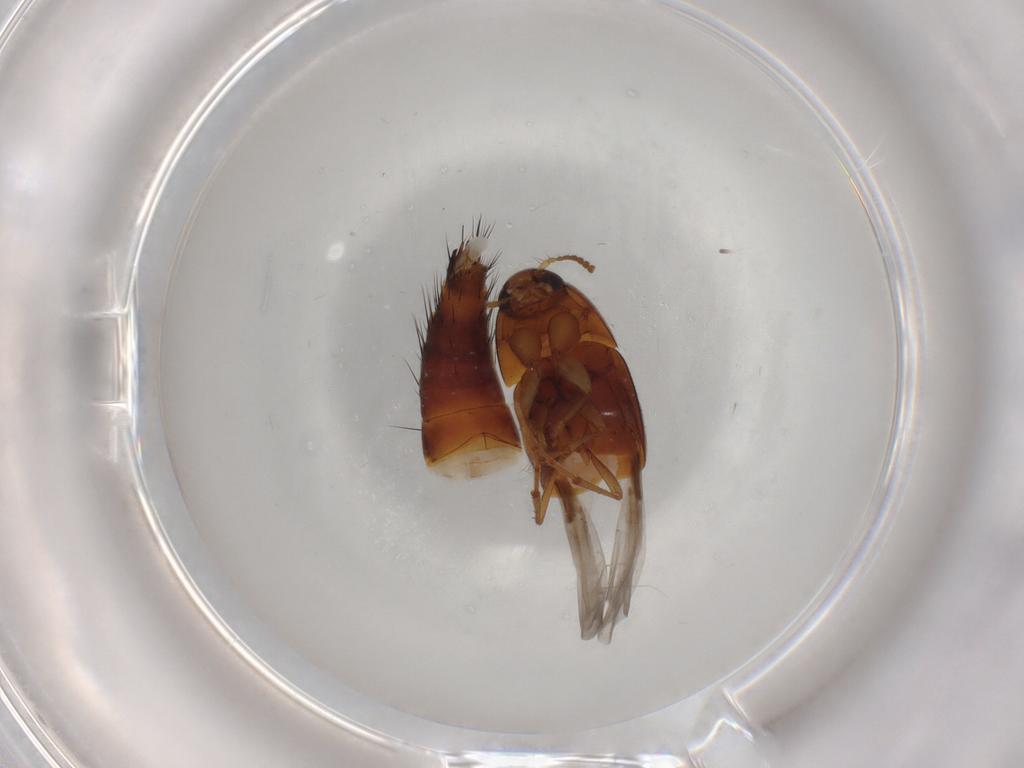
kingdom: Animalia
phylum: Arthropoda
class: Insecta
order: Coleoptera
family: Staphylinidae
